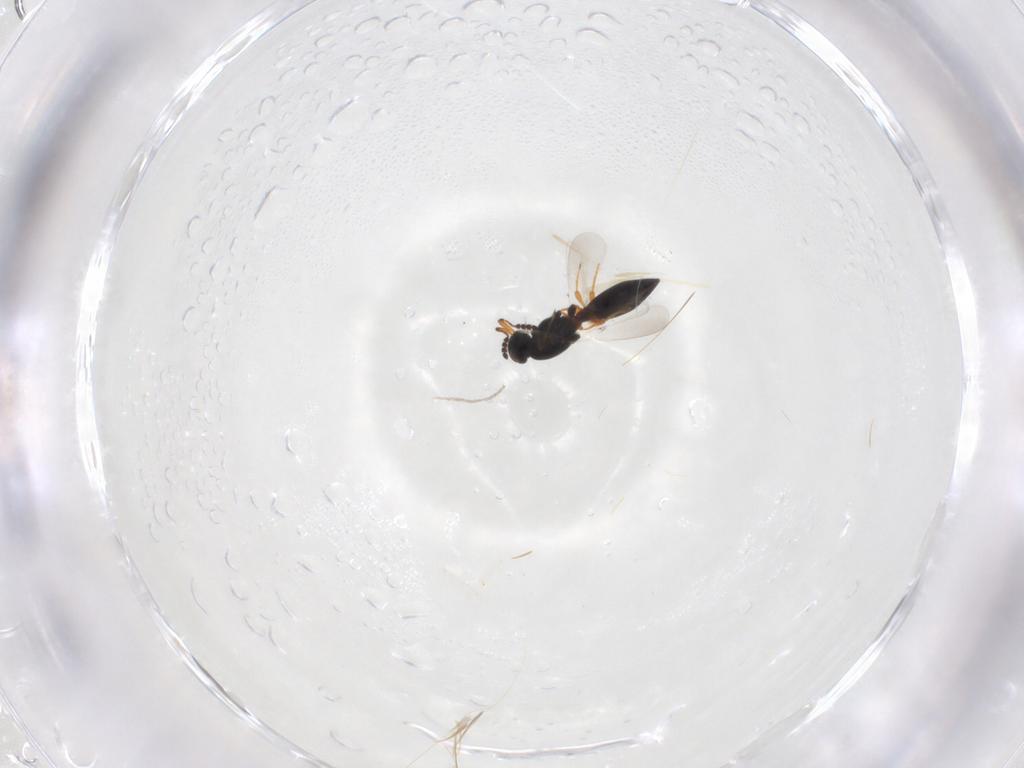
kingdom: Animalia
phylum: Arthropoda
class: Insecta
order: Hymenoptera
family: Platygastridae
